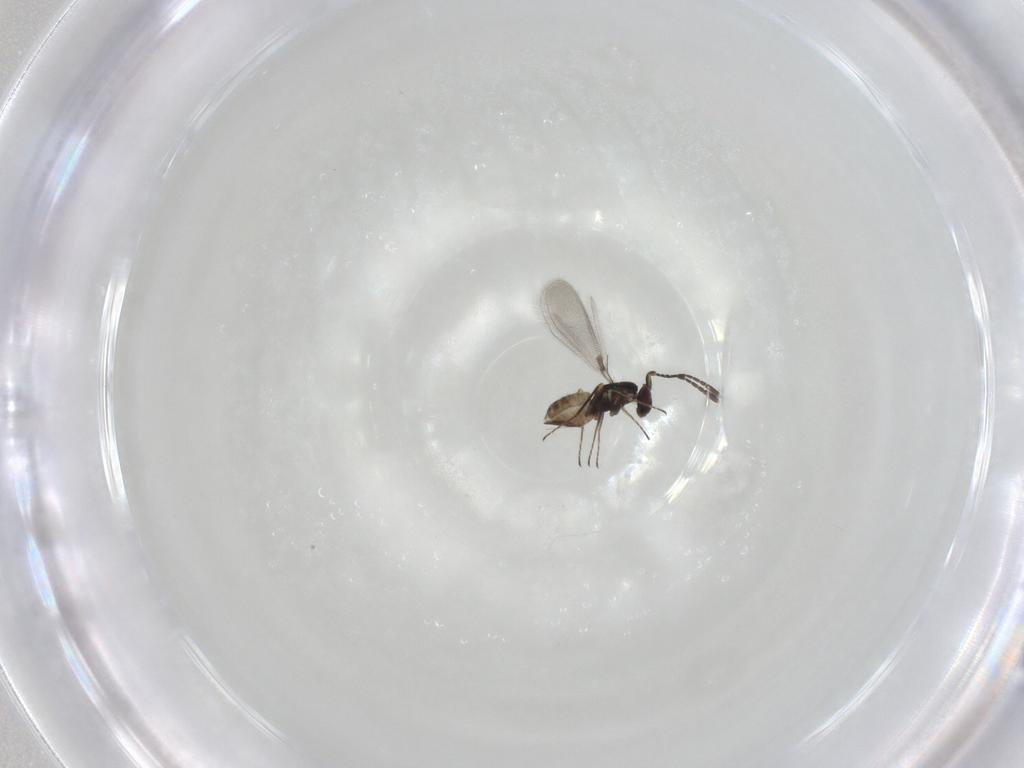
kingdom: Animalia
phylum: Arthropoda
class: Insecta
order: Hymenoptera
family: Mymaridae
